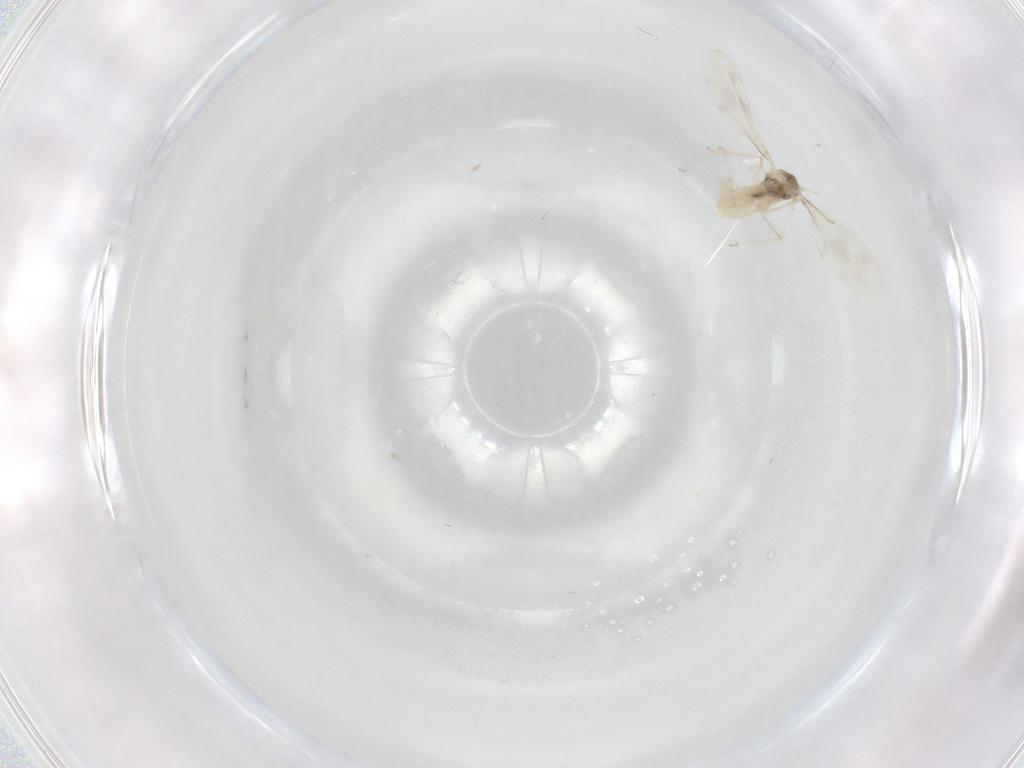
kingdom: Animalia
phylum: Arthropoda
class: Insecta
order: Diptera
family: Cecidomyiidae
